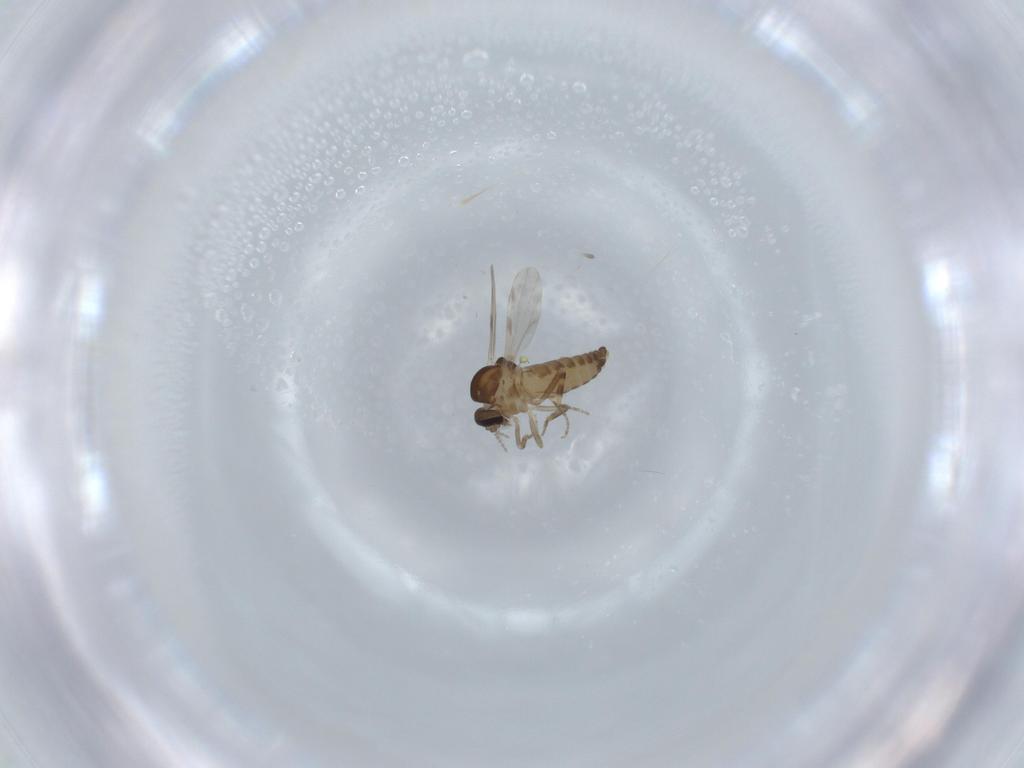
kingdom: Animalia
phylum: Arthropoda
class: Insecta
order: Diptera
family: Ceratopogonidae
